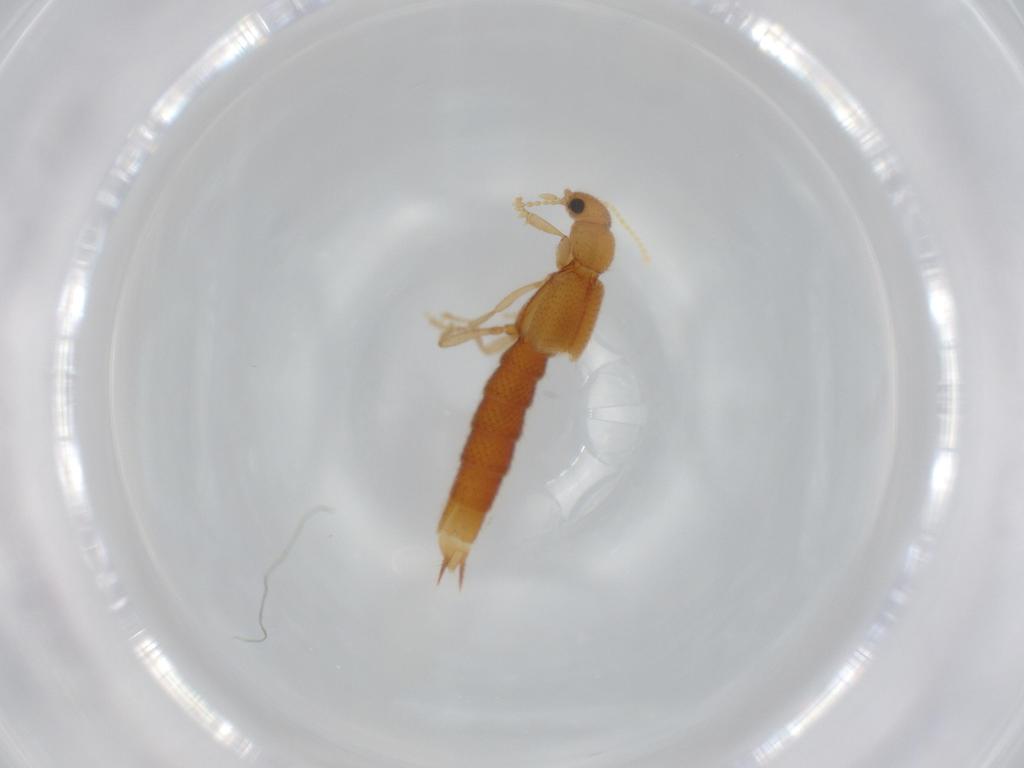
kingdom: Animalia
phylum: Arthropoda
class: Insecta
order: Coleoptera
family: Staphylinidae
